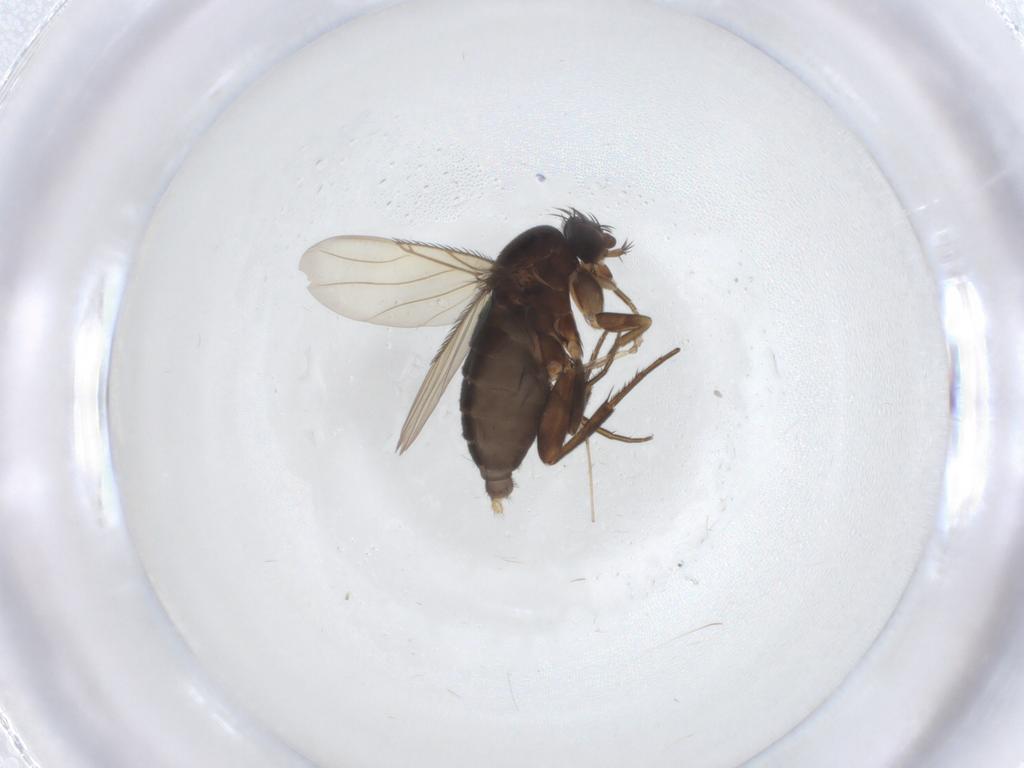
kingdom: Animalia
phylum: Arthropoda
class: Insecta
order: Diptera
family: Phoridae
